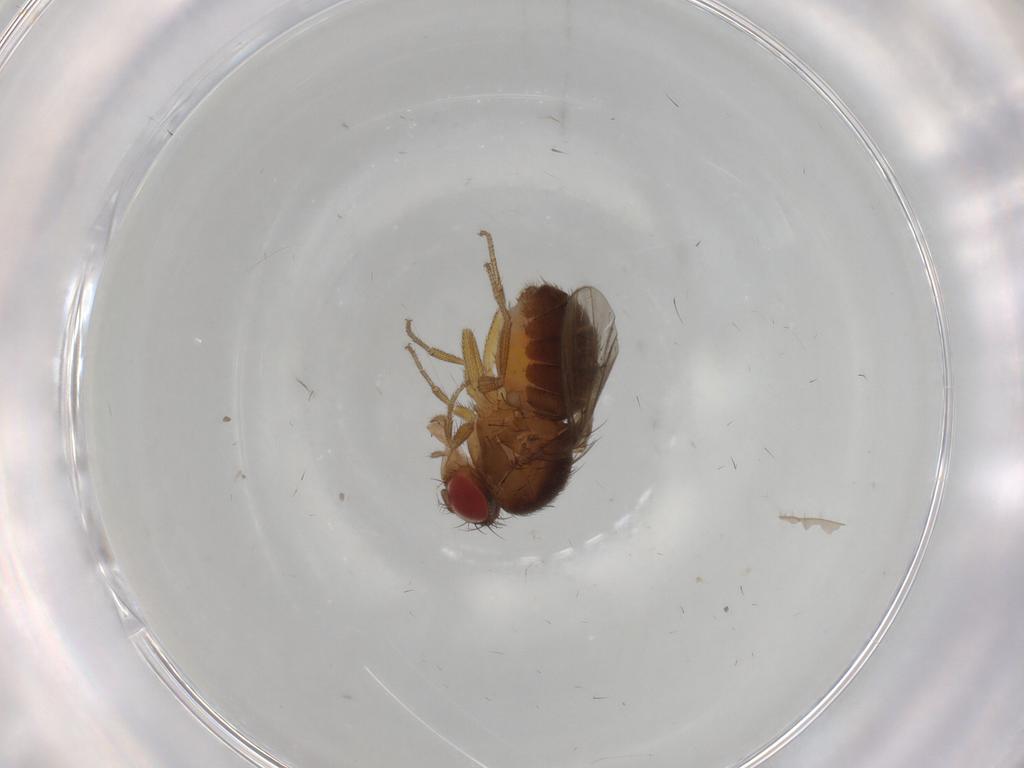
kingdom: Animalia
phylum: Arthropoda
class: Insecta
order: Diptera
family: Drosophilidae
